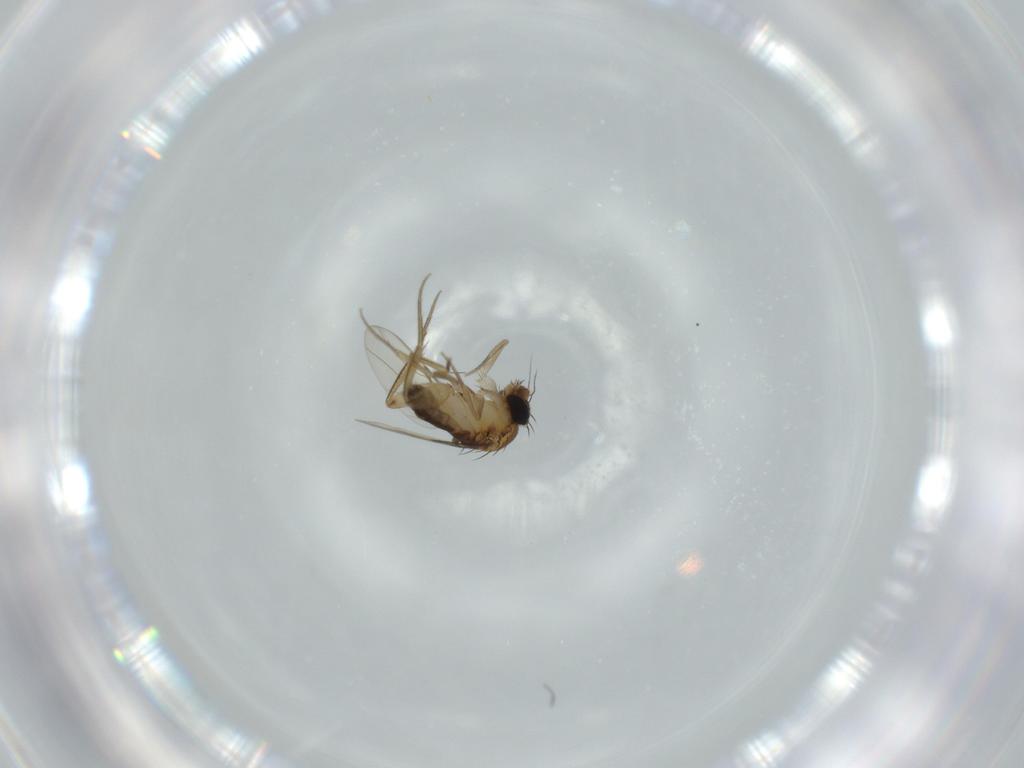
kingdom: Animalia
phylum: Arthropoda
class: Insecta
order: Diptera
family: Phoridae
